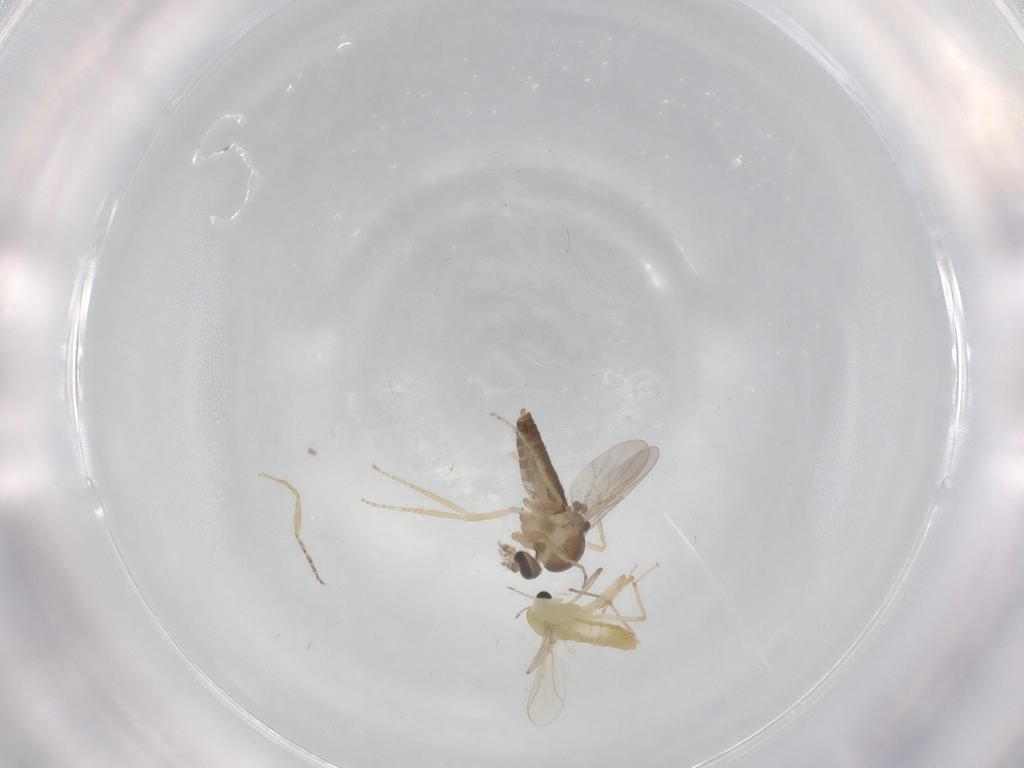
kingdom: Animalia
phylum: Arthropoda
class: Insecta
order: Diptera
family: Ceratopogonidae
